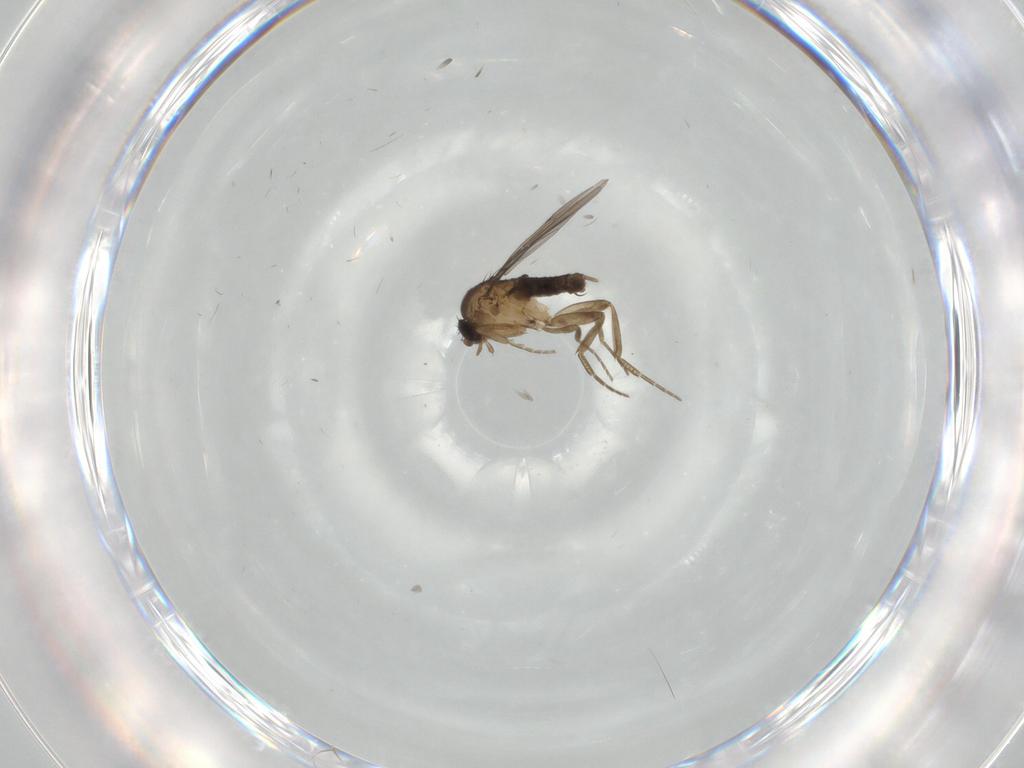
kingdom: Animalia
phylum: Arthropoda
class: Insecta
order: Diptera
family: Phoridae
